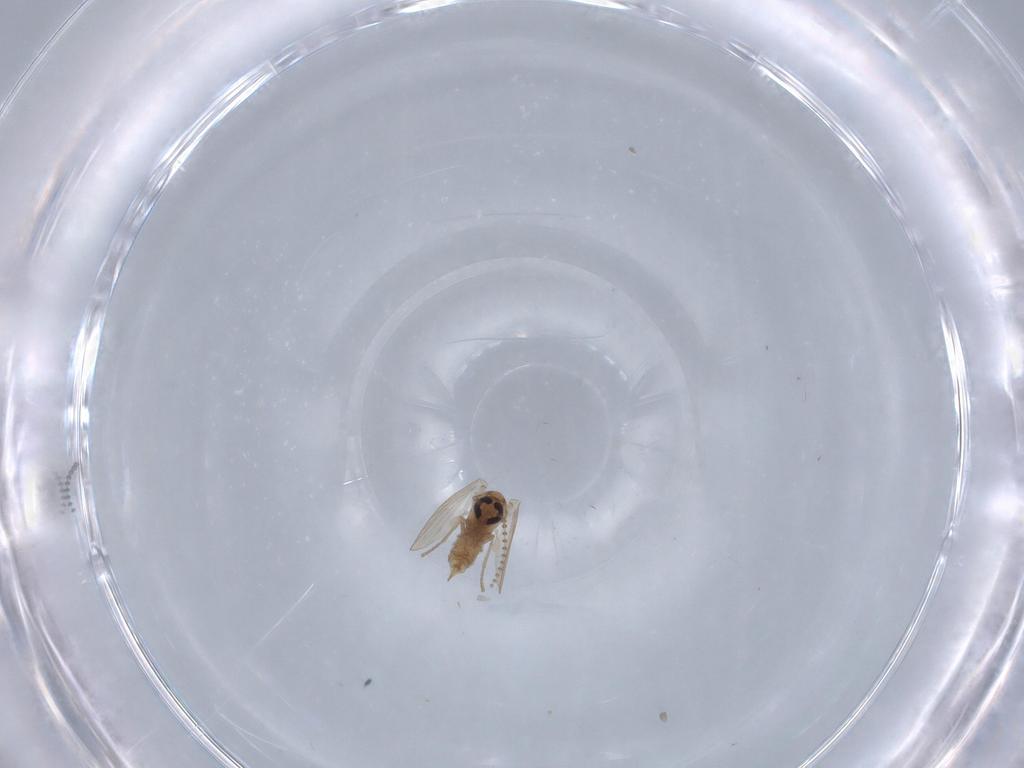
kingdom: Animalia
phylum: Arthropoda
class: Insecta
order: Diptera
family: Psychodidae
